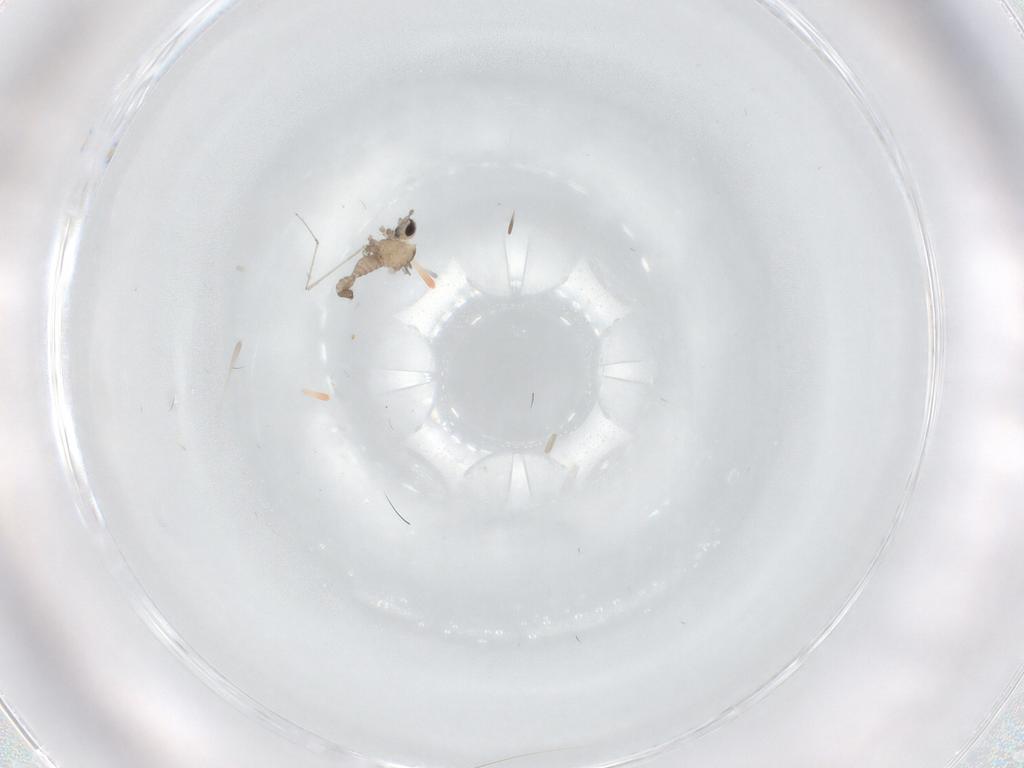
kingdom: Animalia
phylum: Arthropoda
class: Insecta
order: Diptera
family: Cecidomyiidae
